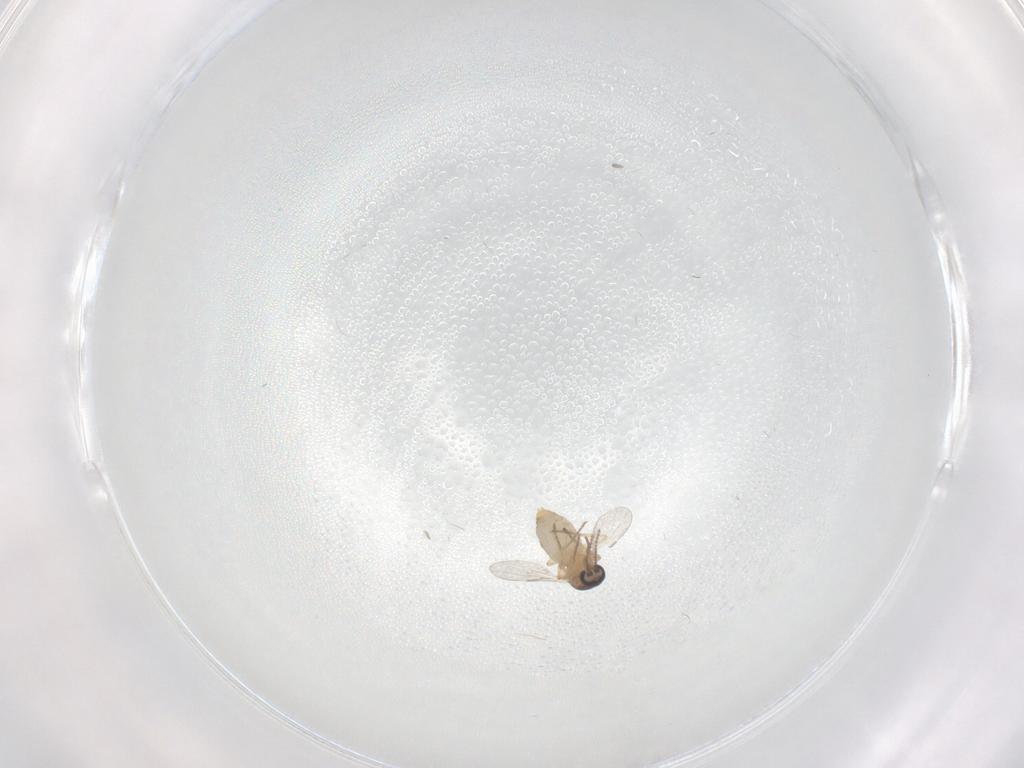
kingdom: Animalia
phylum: Arthropoda
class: Insecta
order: Diptera
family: Ceratopogonidae
